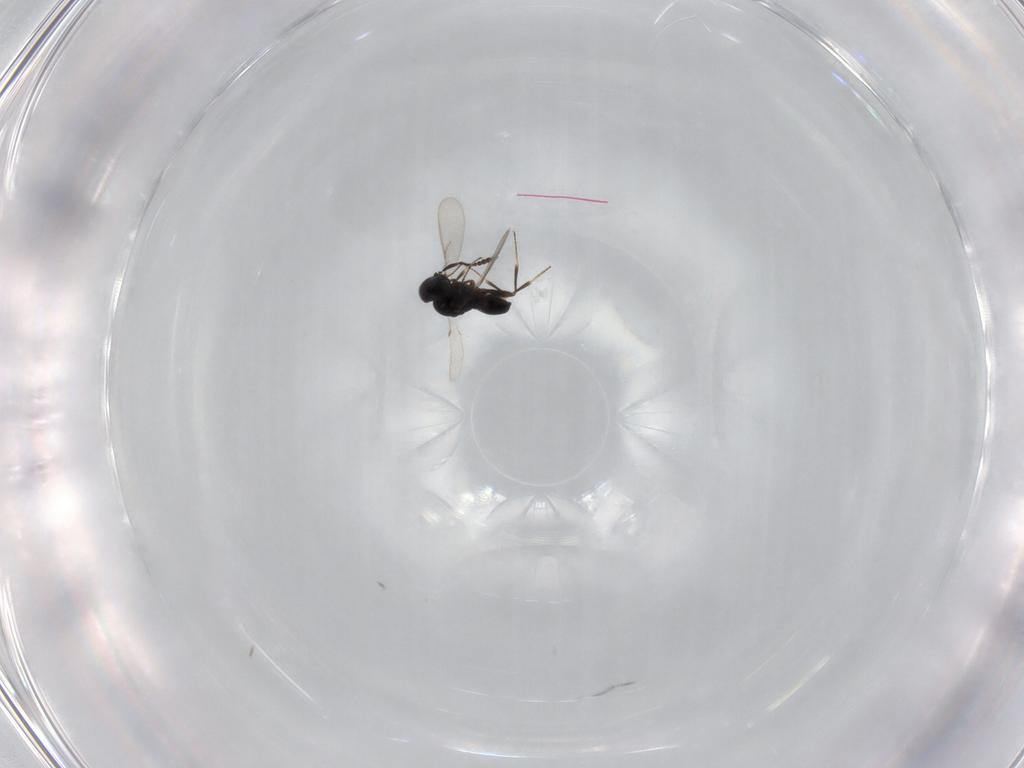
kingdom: Animalia
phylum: Arthropoda
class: Insecta
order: Hymenoptera
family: Scelionidae
